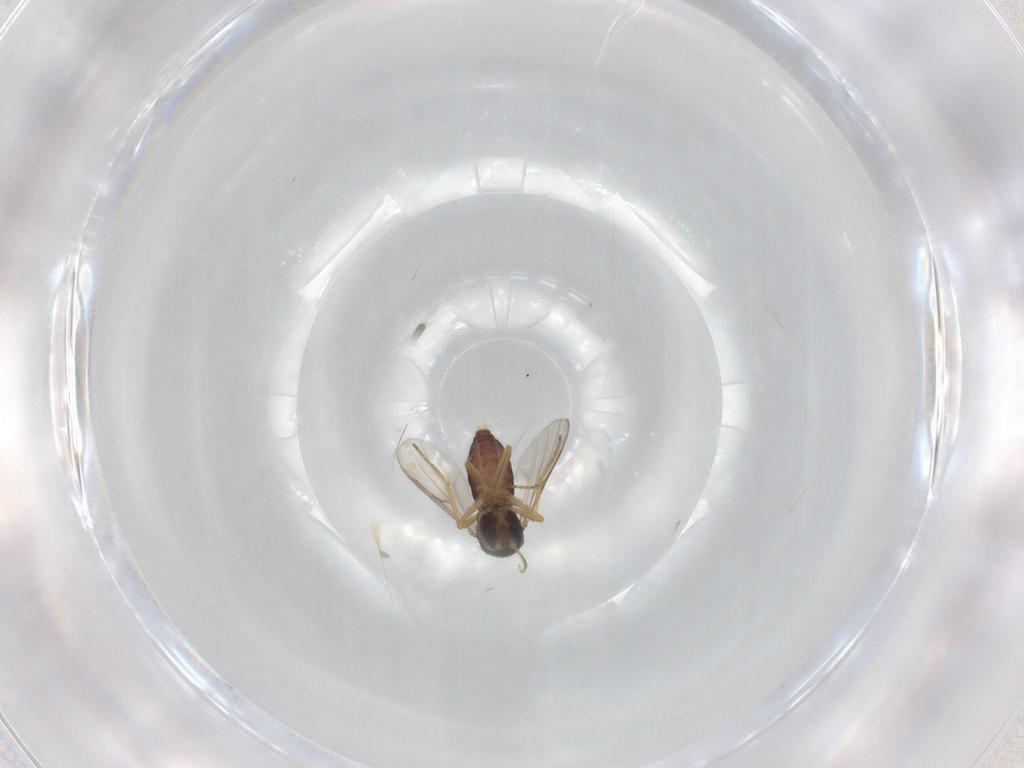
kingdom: Animalia
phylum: Arthropoda
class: Insecta
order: Diptera
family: Ceratopogonidae
